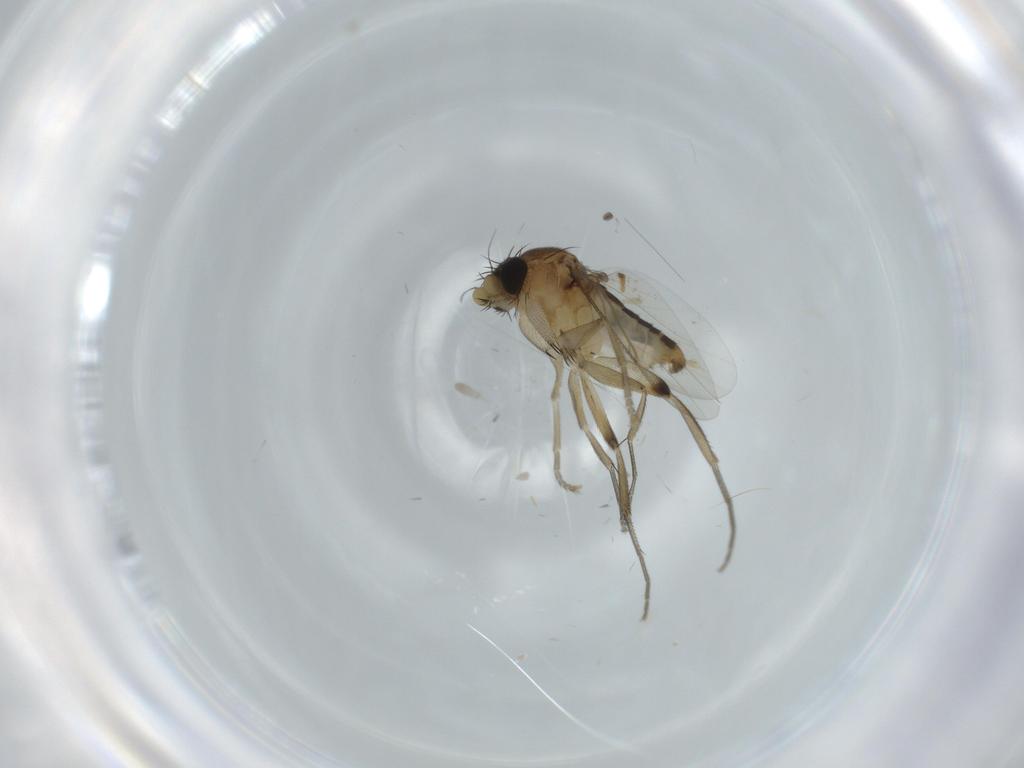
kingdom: Animalia
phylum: Arthropoda
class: Insecta
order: Diptera
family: Phoridae
